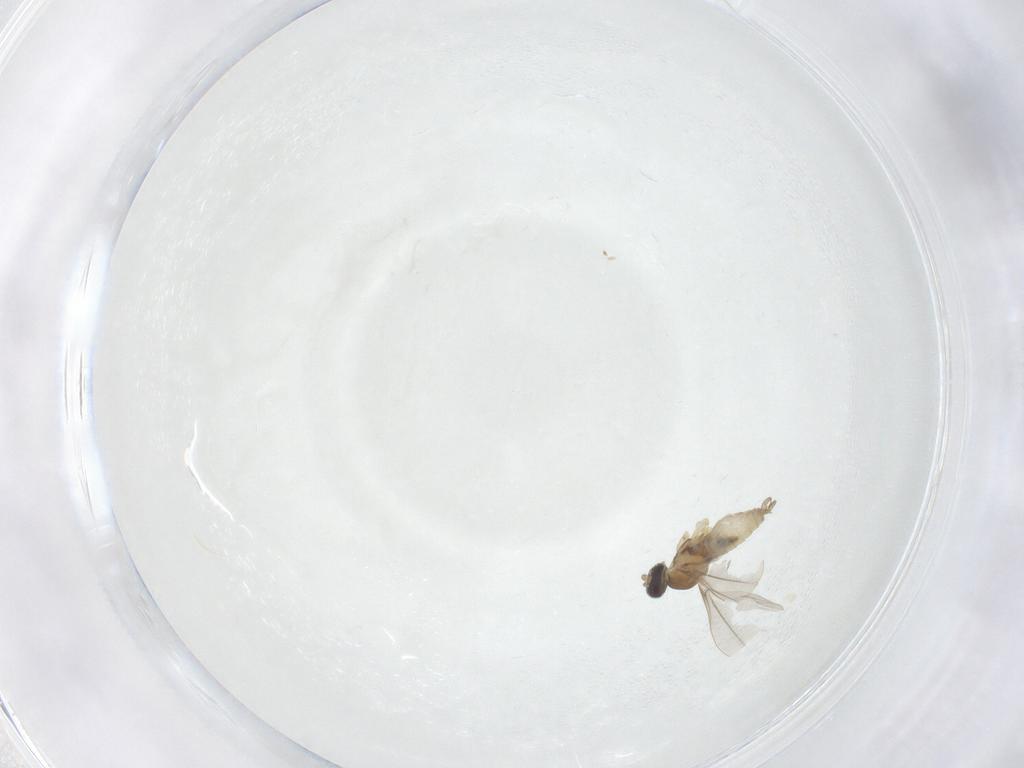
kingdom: Animalia
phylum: Arthropoda
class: Insecta
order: Diptera
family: Cecidomyiidae
